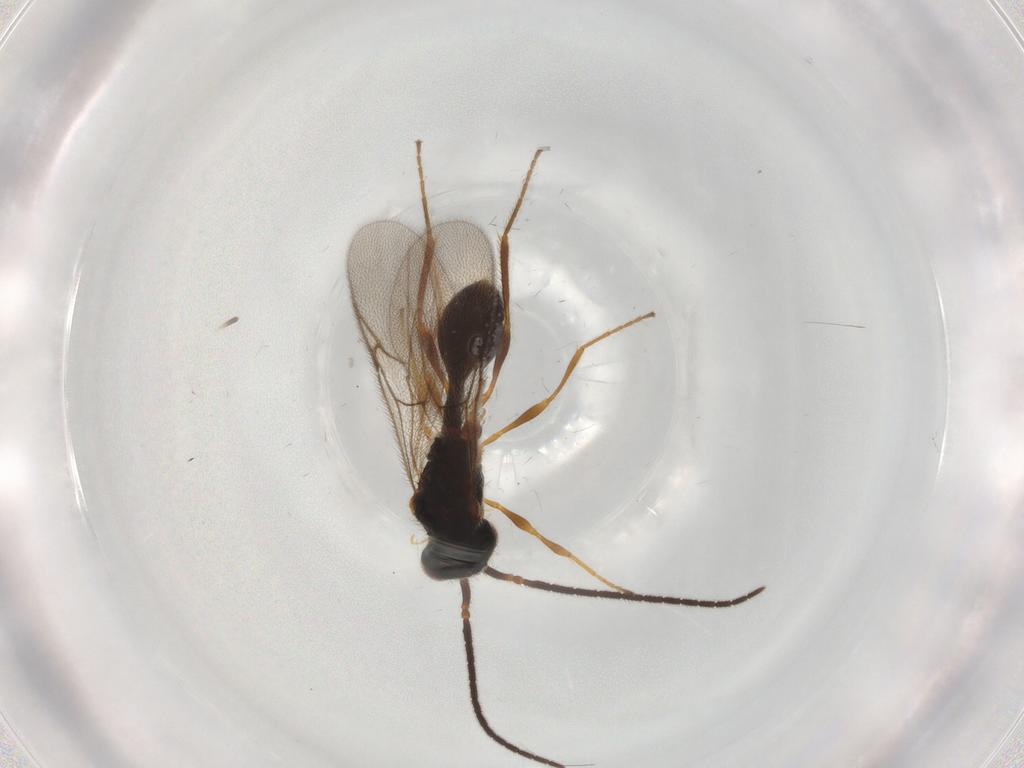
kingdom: Animalia
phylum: Arthropoda
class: Insecta
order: Hymenoptera
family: Diapriidae
